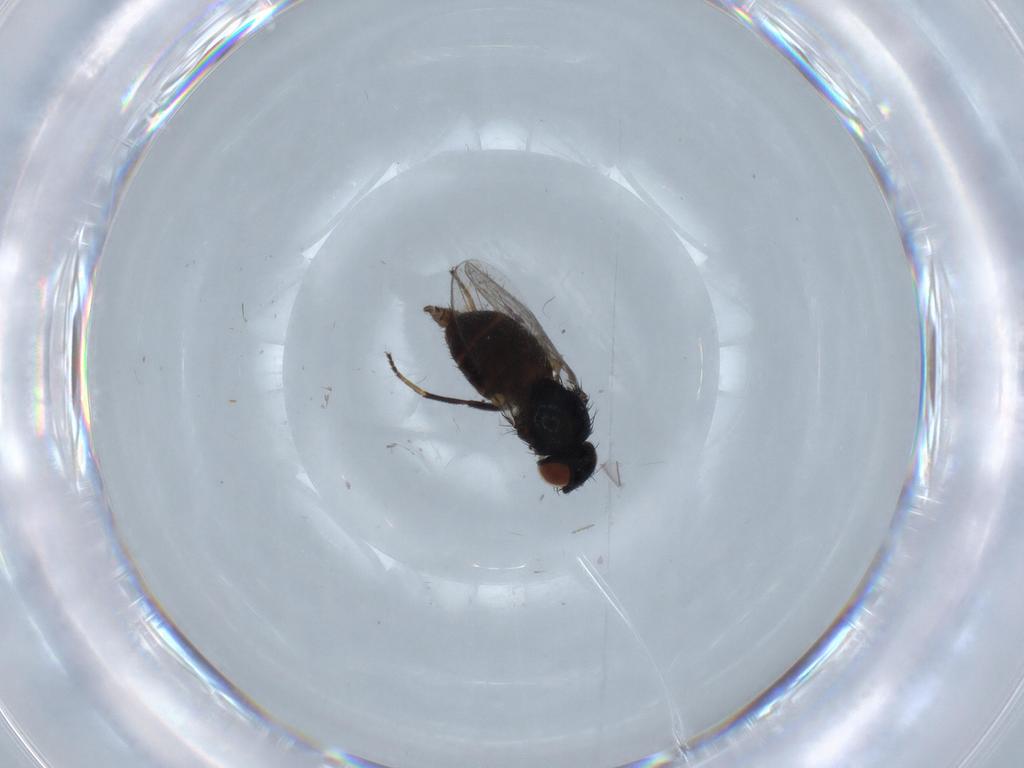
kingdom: Animalia
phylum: Arthropoda
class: Insecta
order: Diptera
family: Milichiidae
